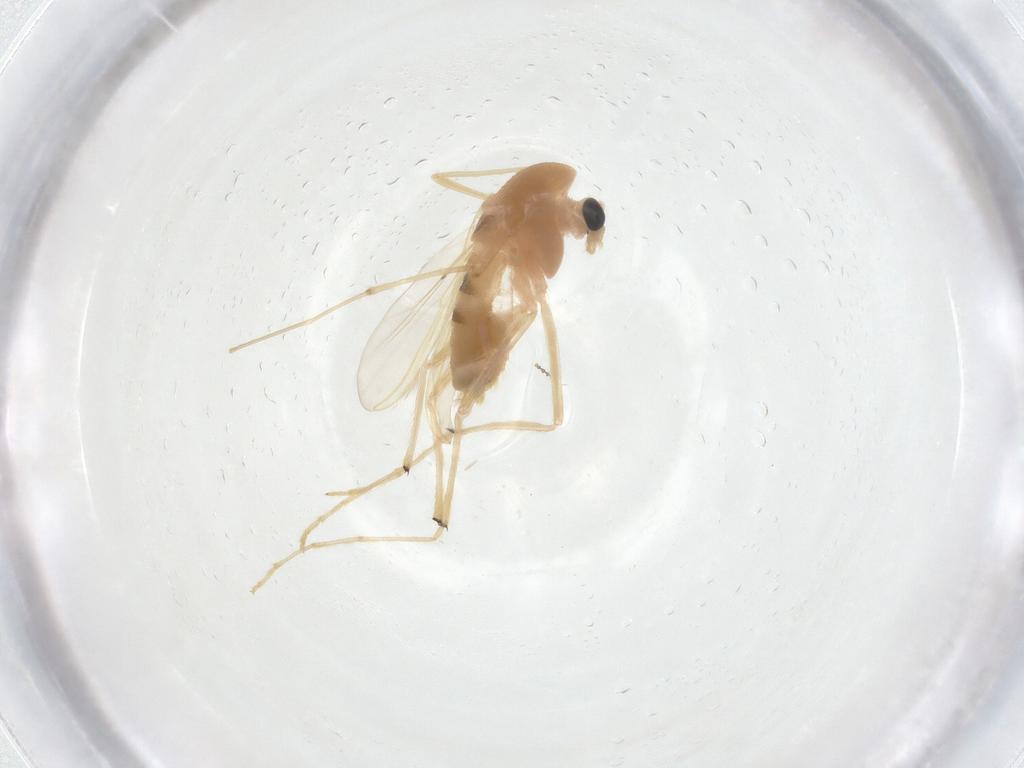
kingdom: Animalia
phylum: Arthropoda
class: Insecta
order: Diptera
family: Chironomidae
